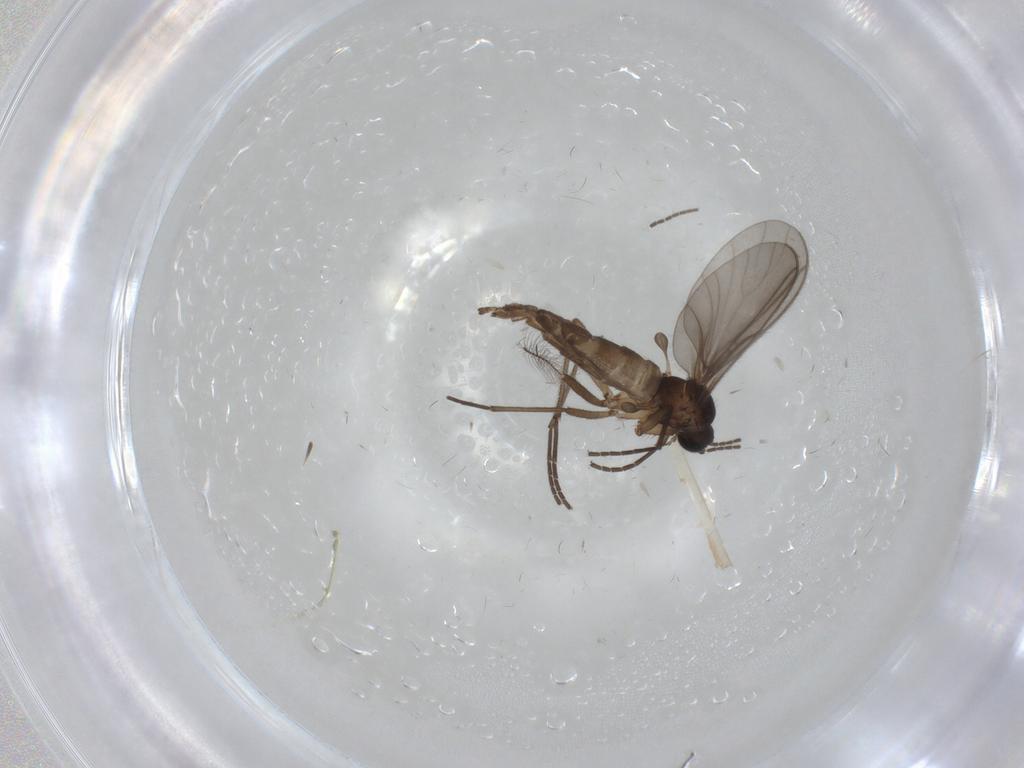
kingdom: Animalia
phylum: Arthropoda
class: Insecta
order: Diptera
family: Sciaridae
